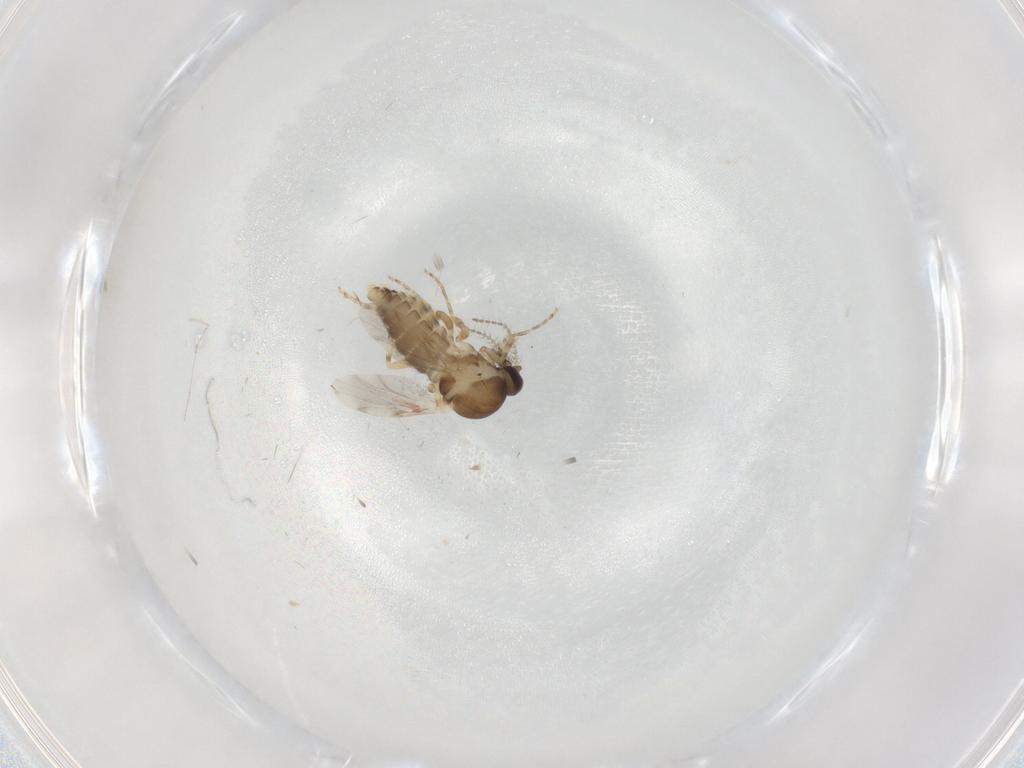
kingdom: Animalia
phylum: Arthropoda
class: Insecta
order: Diptera
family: Ceratopogonidae
